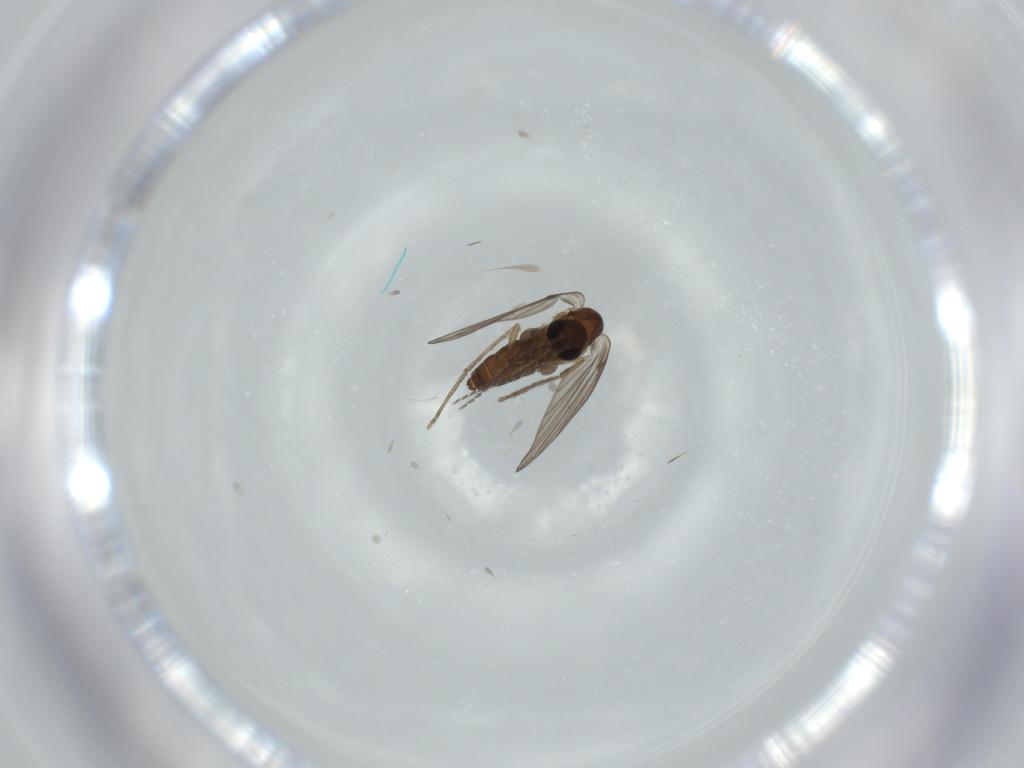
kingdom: Animalia
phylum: Arthropoda
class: Insecta
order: Diptera
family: Psychodidae
